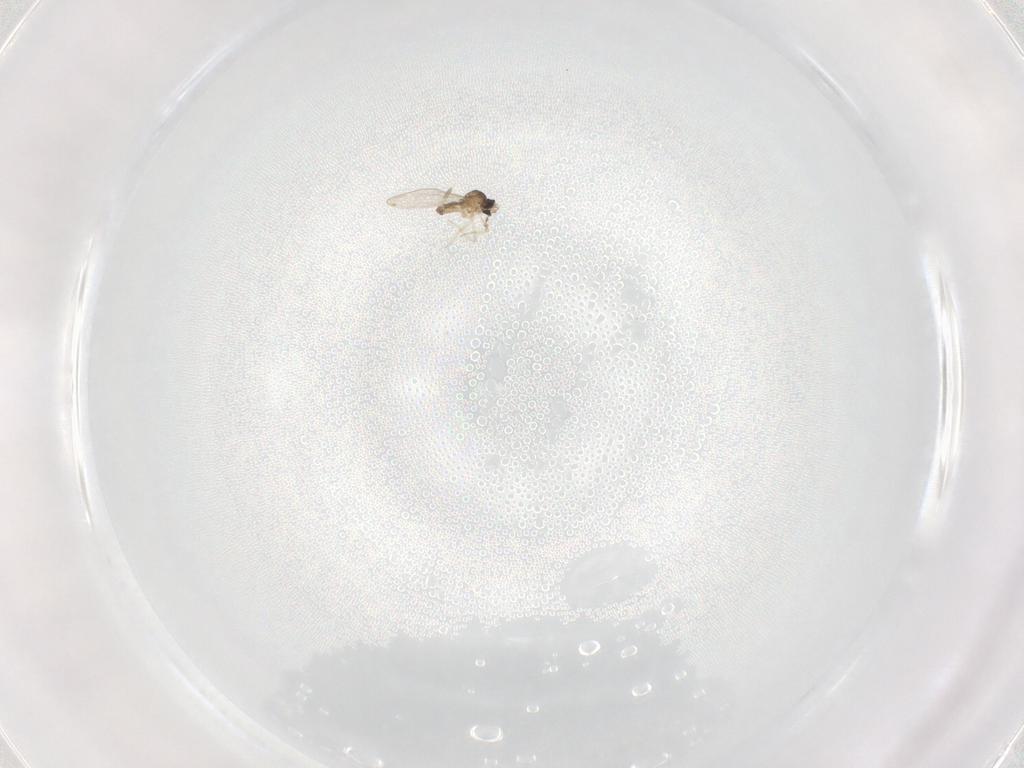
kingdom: Animalia
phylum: Arthropoda
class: Insecta
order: Diptera
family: Cecidomyiidae
